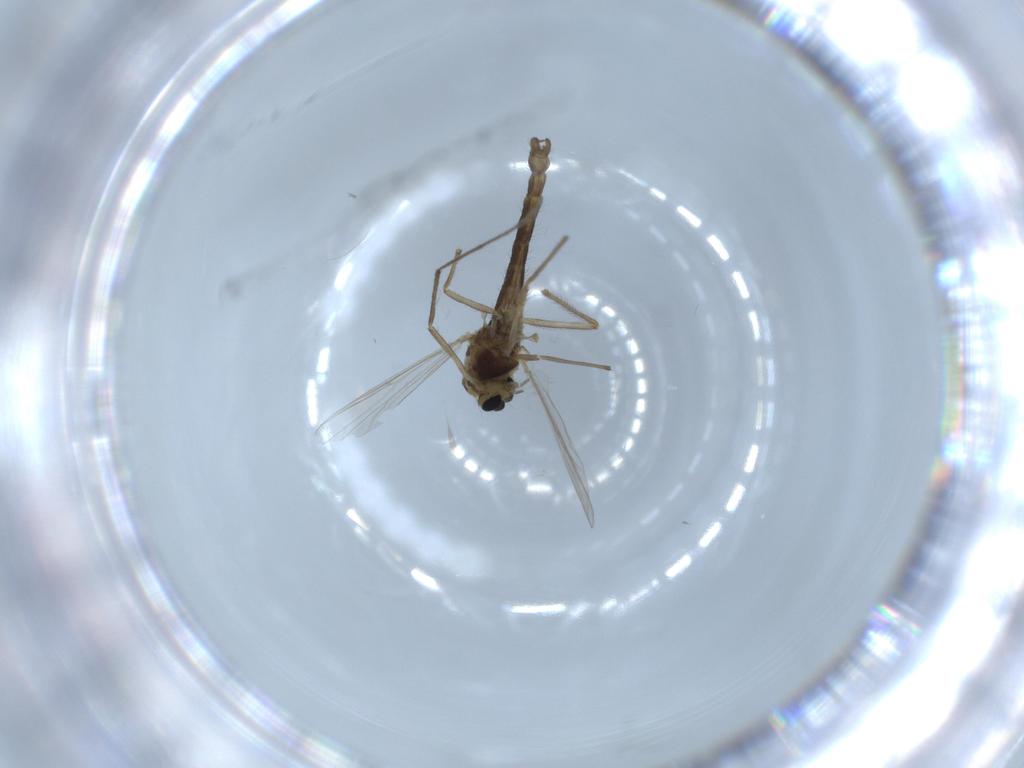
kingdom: Animalia
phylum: Arthropoda
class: Insecta
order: Diptera
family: Chironomidae
